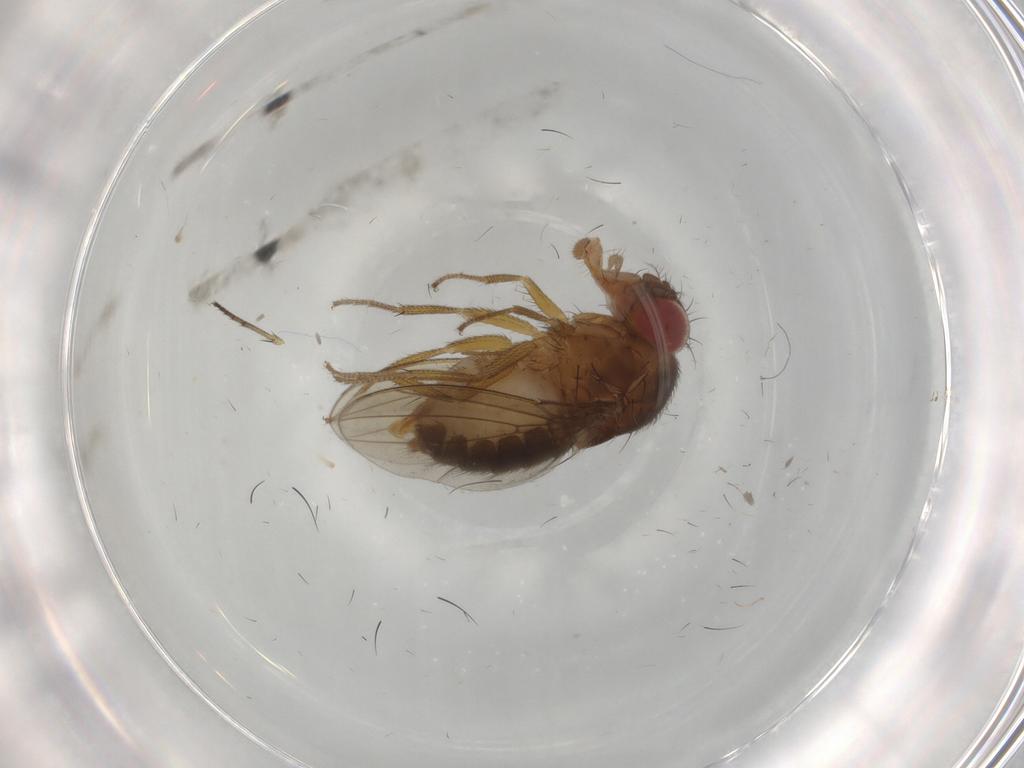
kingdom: Animalia
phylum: Arthropoda
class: Insecta
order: Diptera
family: Drosophilidae
